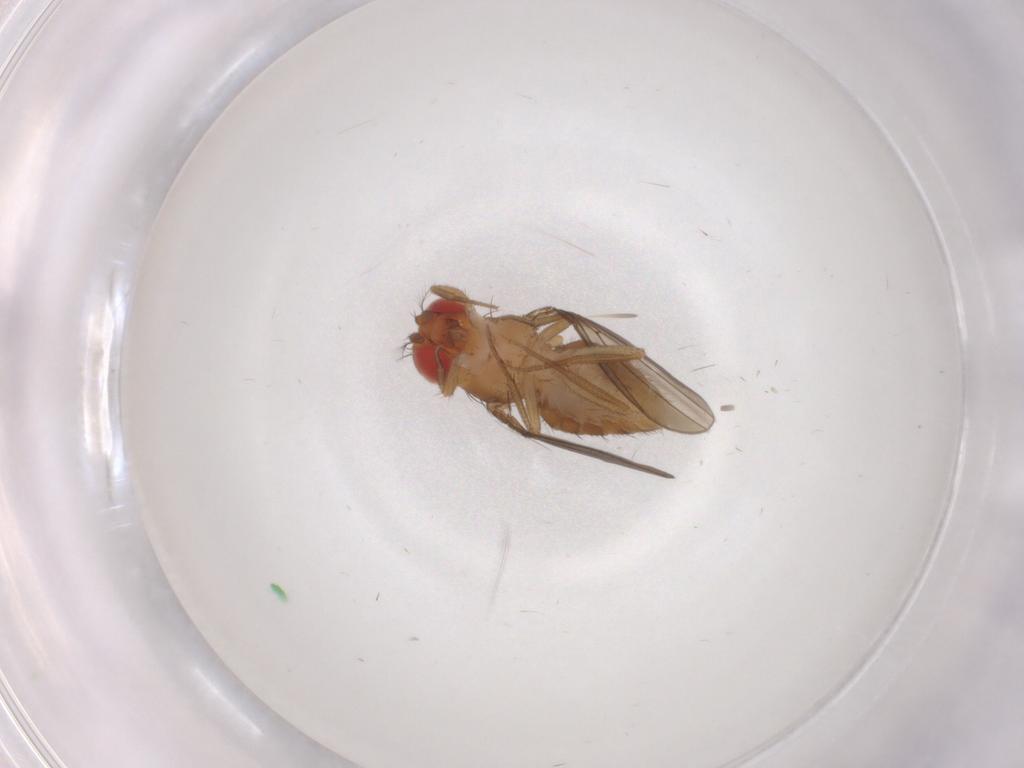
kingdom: Animalia
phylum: Arthropoda
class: Insecta
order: Diptera
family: Drosophilidae
